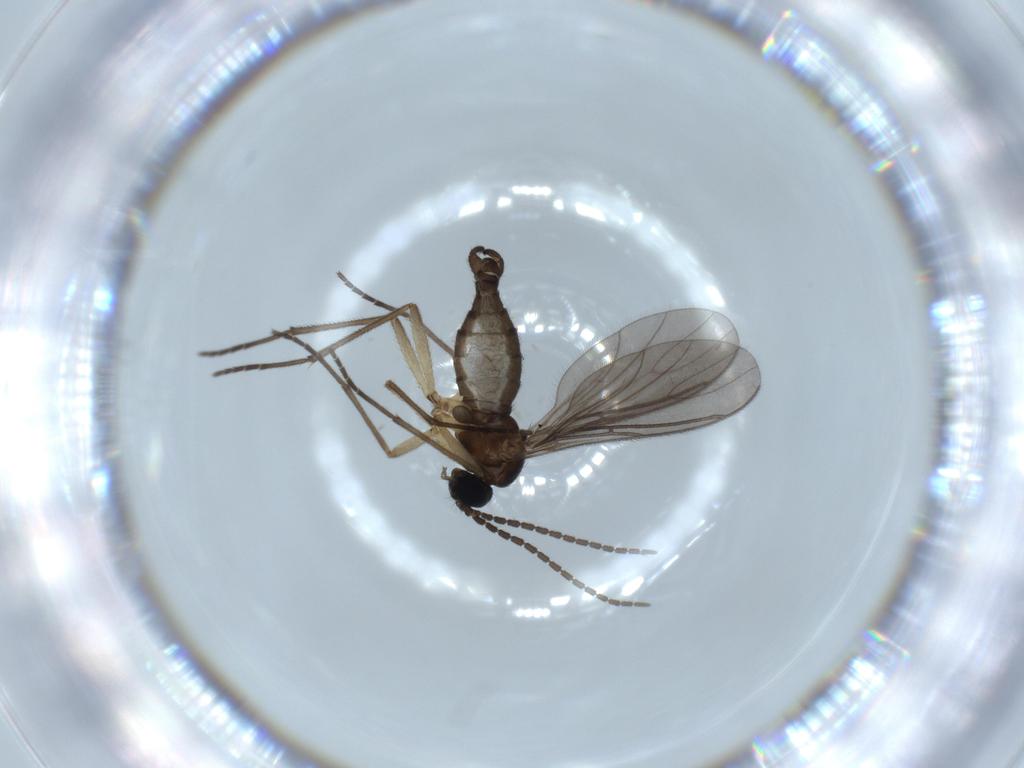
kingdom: Animalia
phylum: Arthropoda
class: Insecta
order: Diptera
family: Sciaridae
